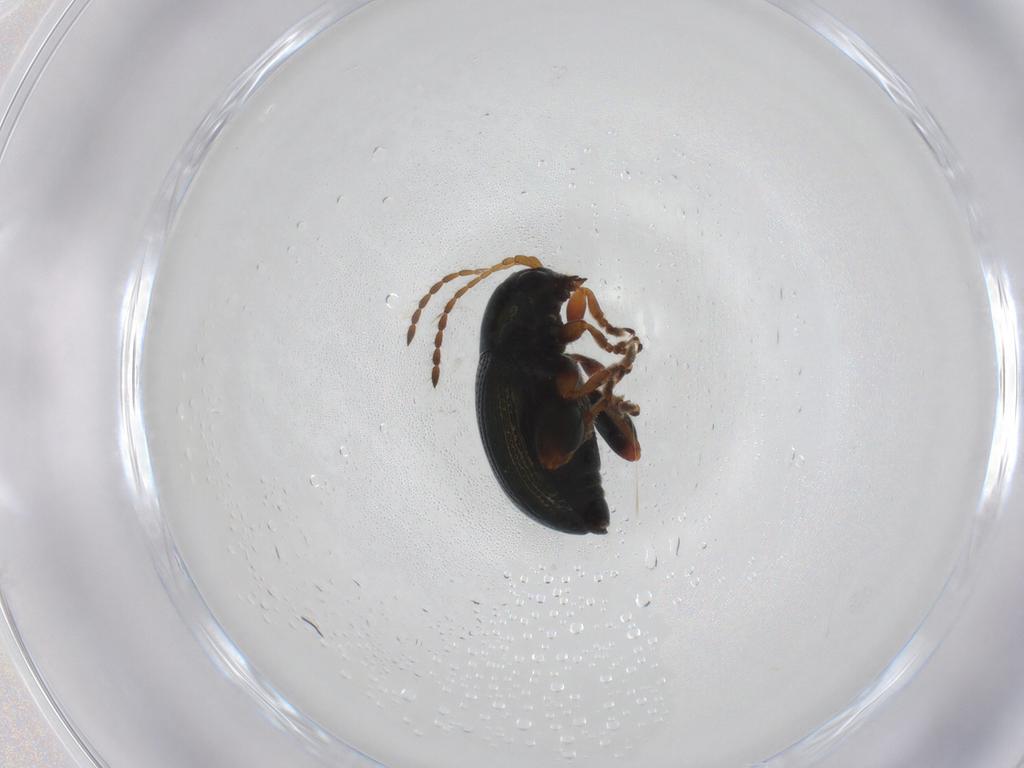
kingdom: Animalia
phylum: Arthropoda
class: Insecta
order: Coleoptera
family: Chrysomelidae
